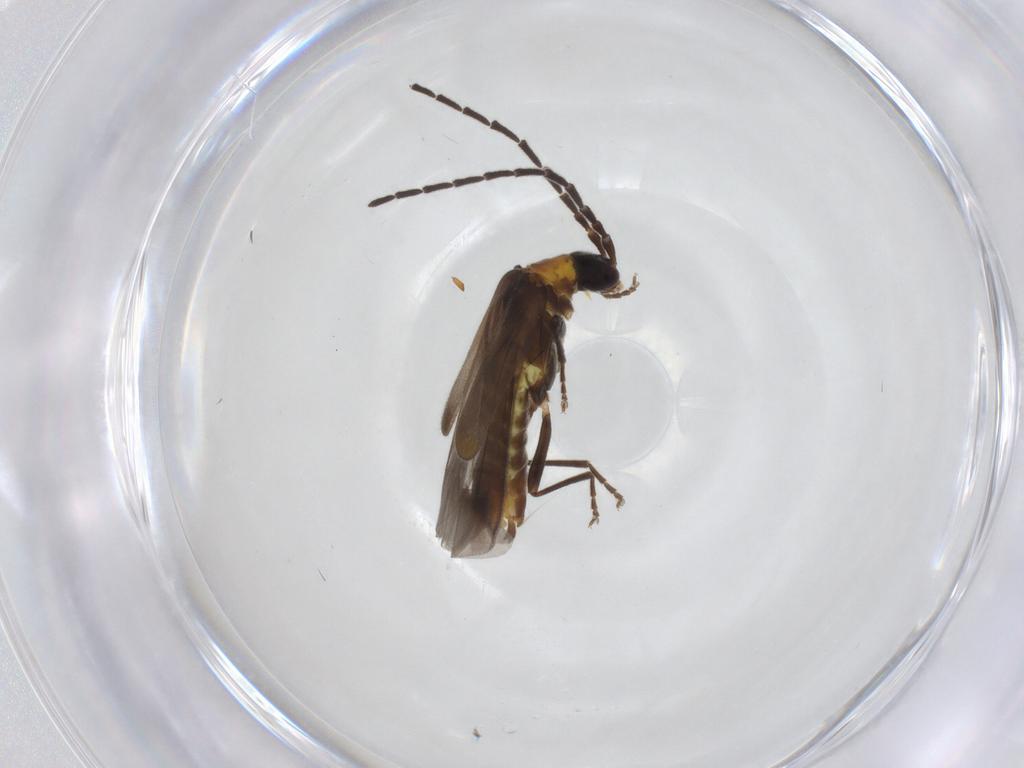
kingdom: Animalia
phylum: Arthropoda
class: Insecta
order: Coleoptera
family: Cantharidae
